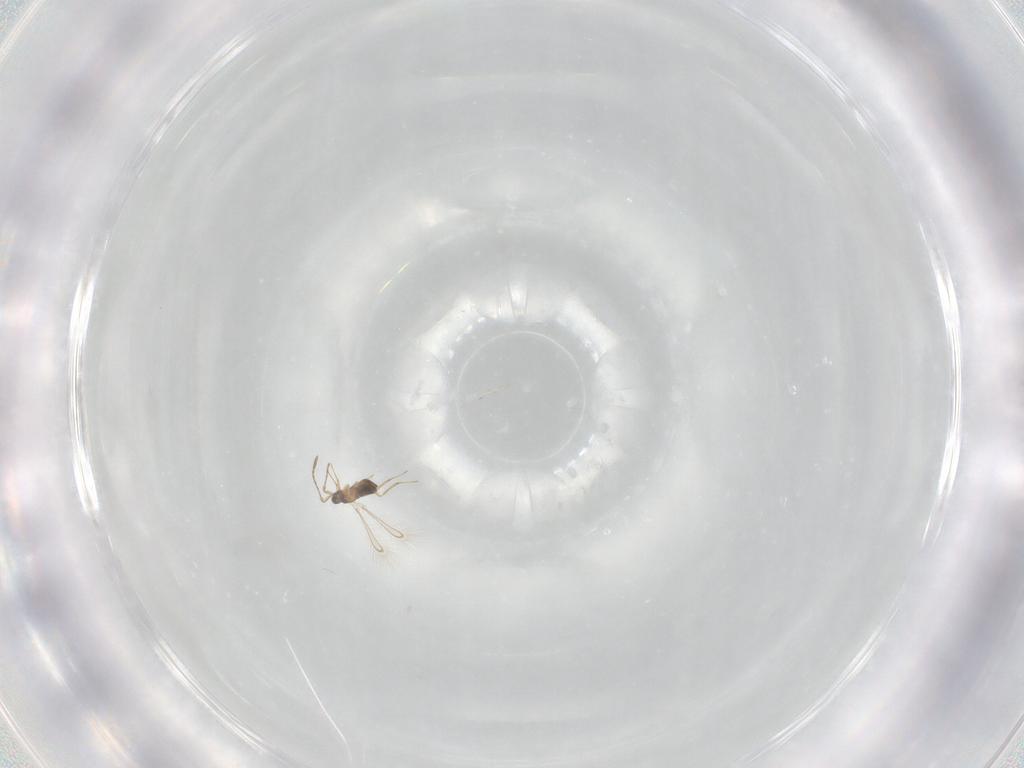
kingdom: Animalia
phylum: Arthropoda
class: Insecta
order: Hymenoptera
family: Mymaridae
